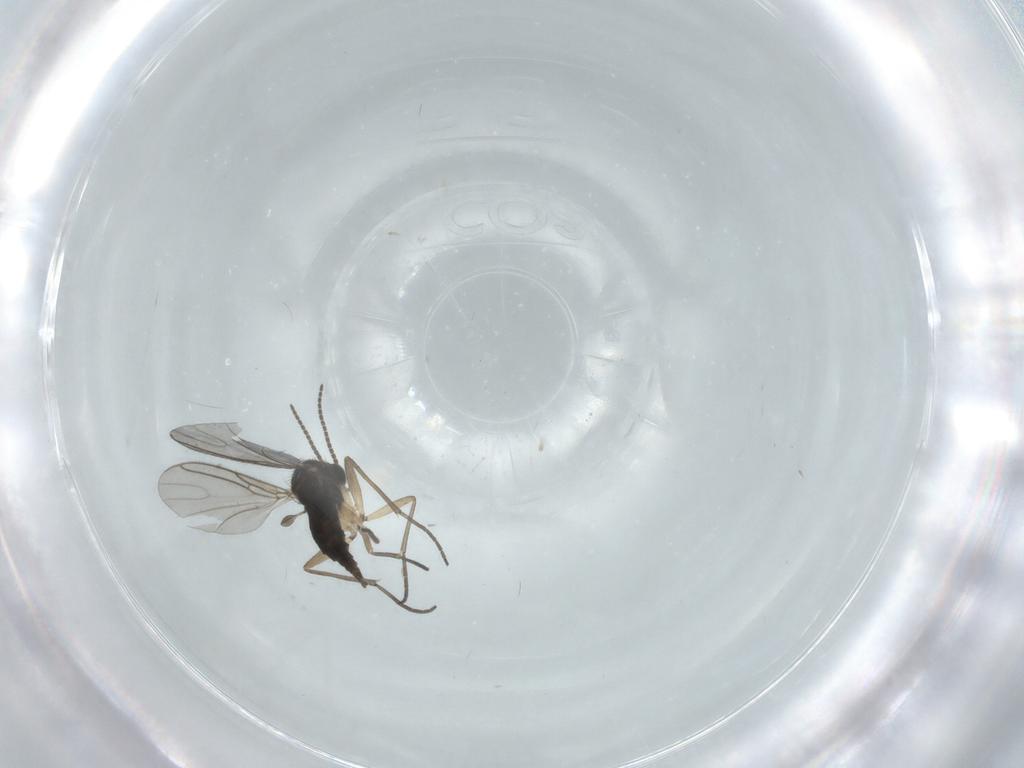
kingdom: Animalia
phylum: Arthropoda
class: Insecta
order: Diptera
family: Sciaridae
